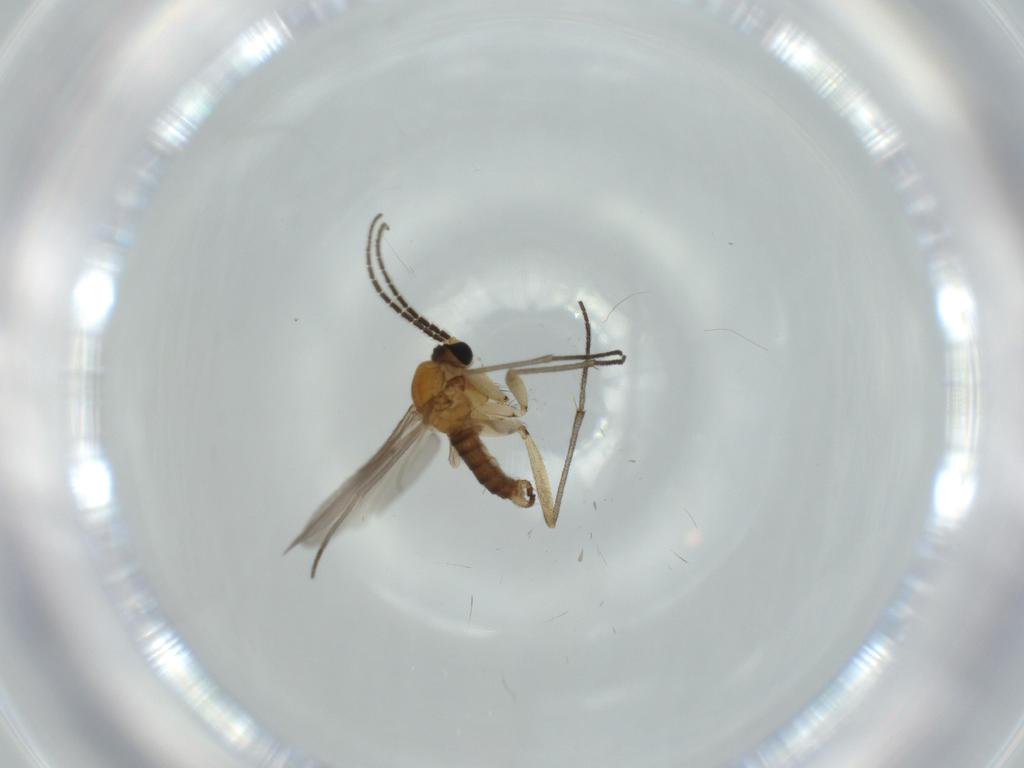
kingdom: Animalia
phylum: Arthropoda
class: Insecta
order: Diptera
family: Sciaridae
